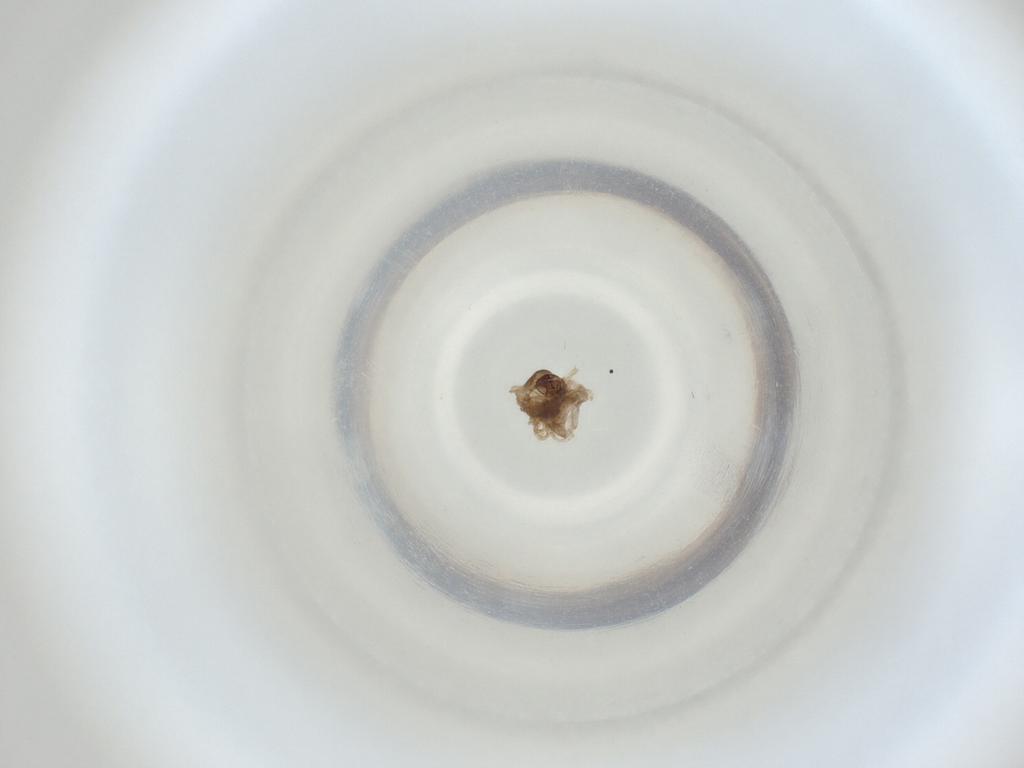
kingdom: Animalia
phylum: Arthropoda
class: Insecta
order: Diptera
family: Cecidomyiidae
